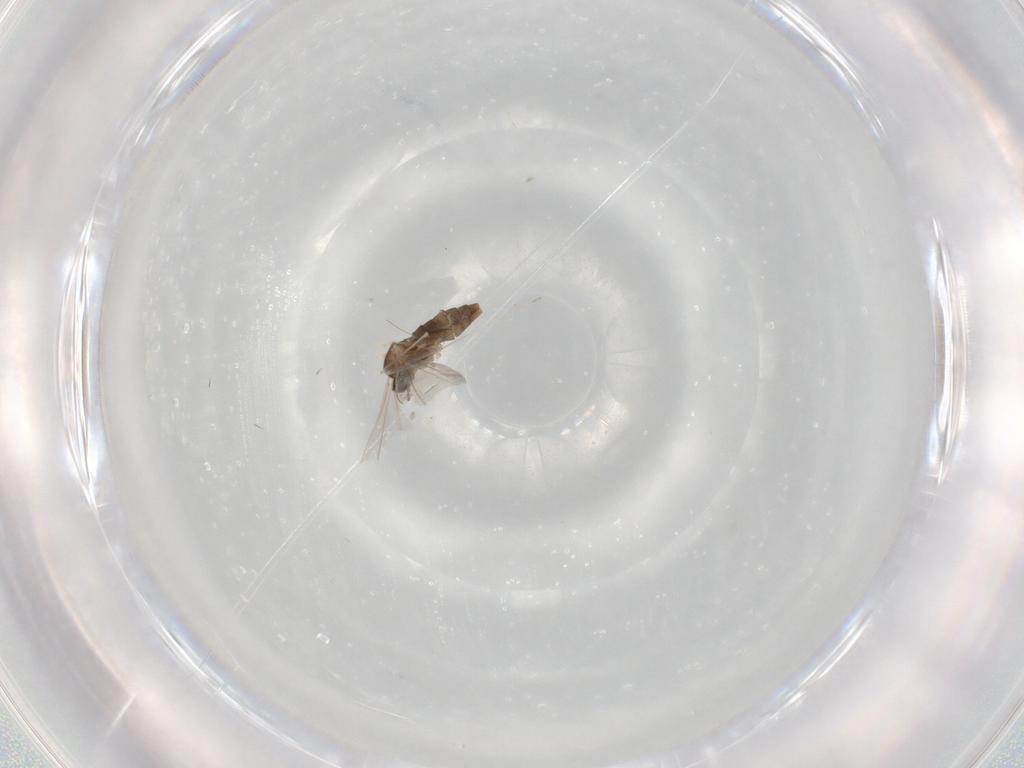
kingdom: Animalia
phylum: Arthropoda
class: Insecta
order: Diptera
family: Cecidomyiidae
